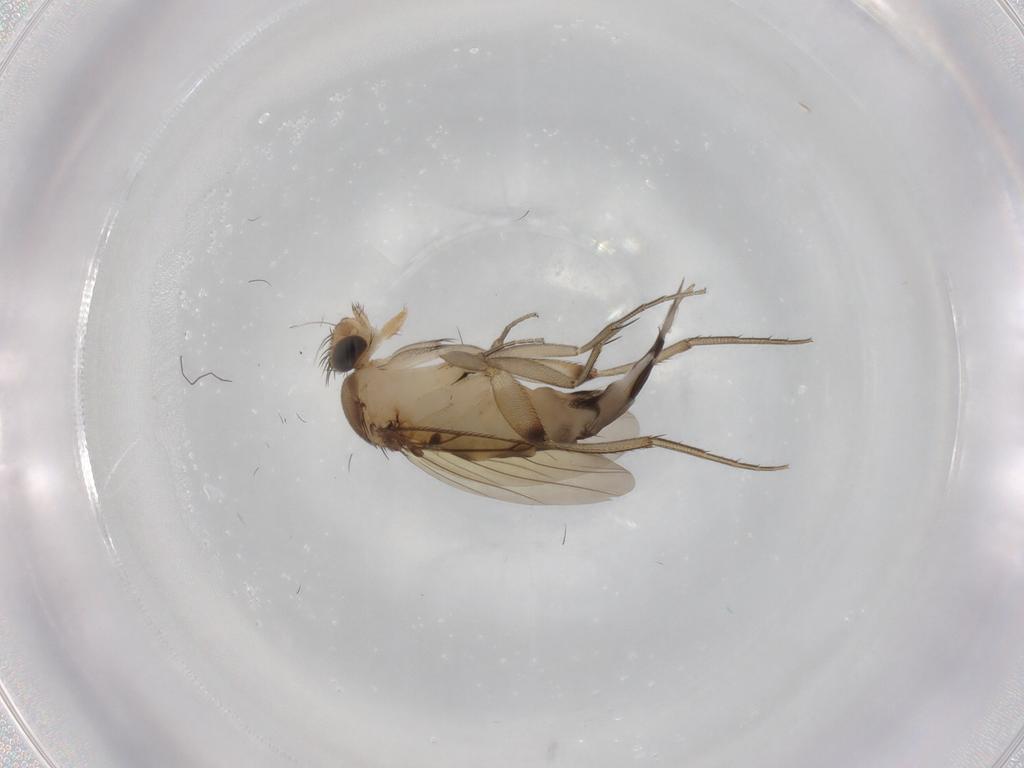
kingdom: Animalia
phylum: Arthropoda
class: Insecta
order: Diptera
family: Phoridae
